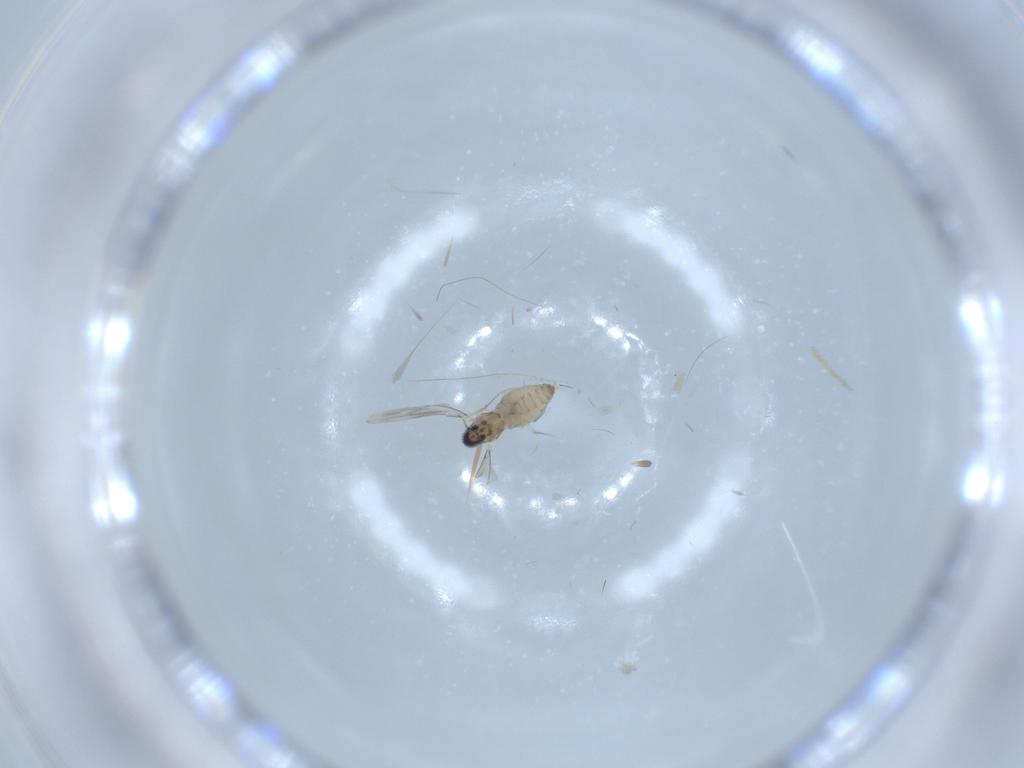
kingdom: Animalia
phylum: Arthropoda
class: Insecta
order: Diptera
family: Cecidomyiidae
